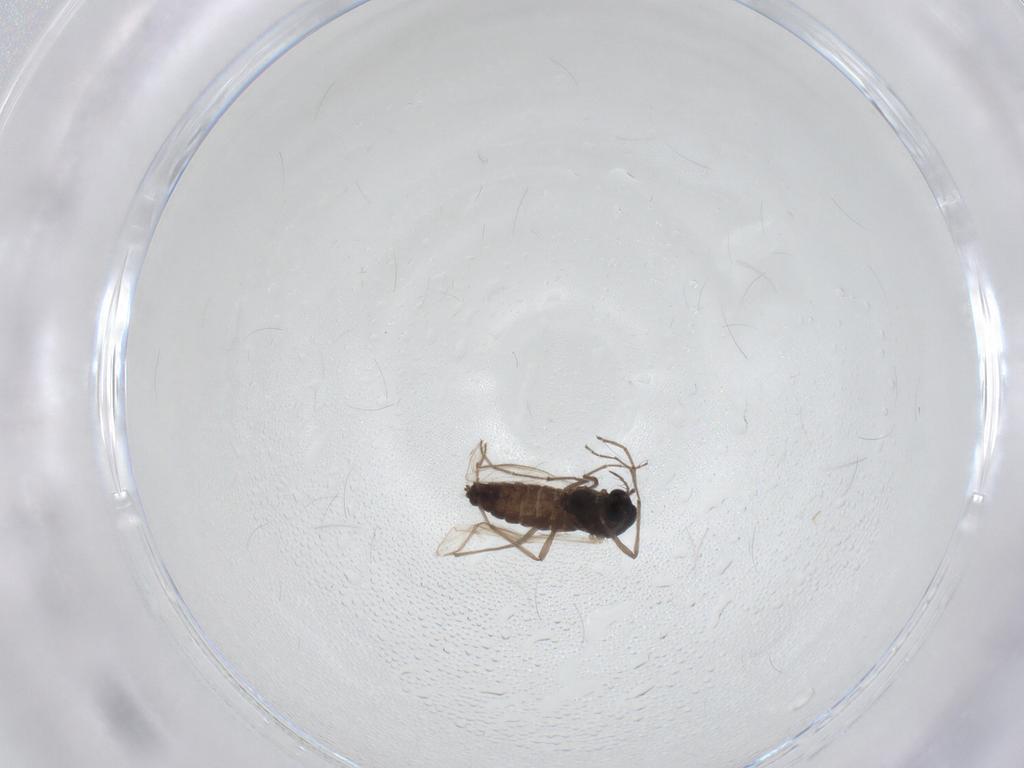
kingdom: Animalia
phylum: Arthropoda
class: Insecta
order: Diptera
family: Chironomidae
